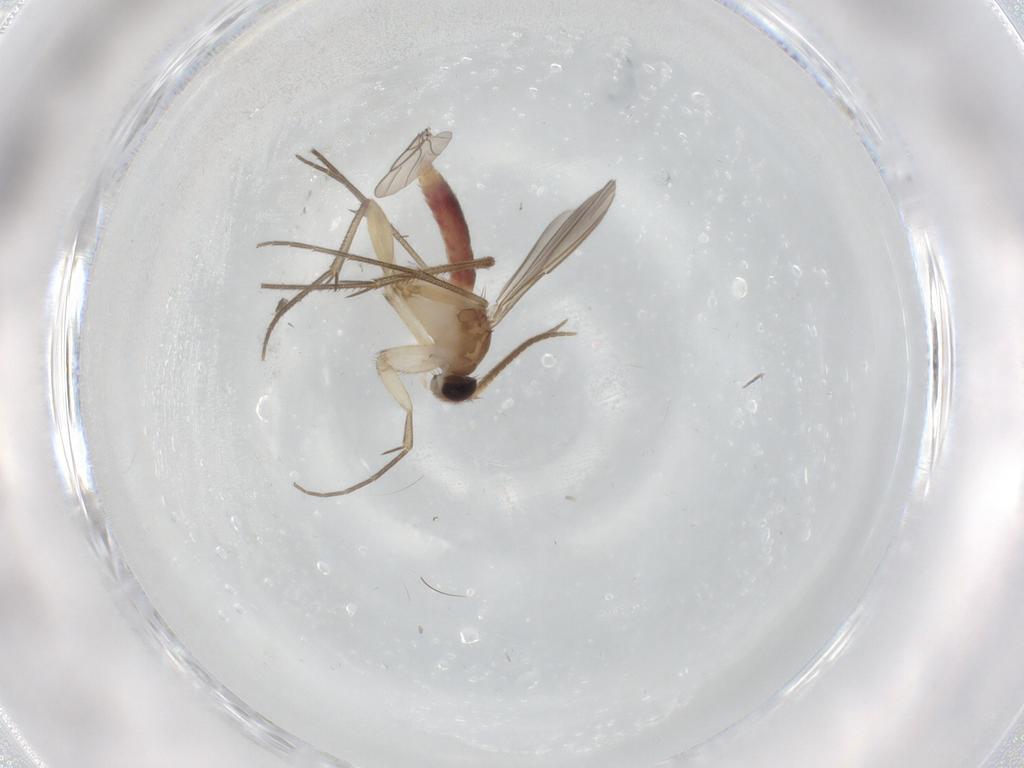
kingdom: Animalia
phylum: Arthropoda
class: Insecta
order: Diptera
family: Mycetophilidae
